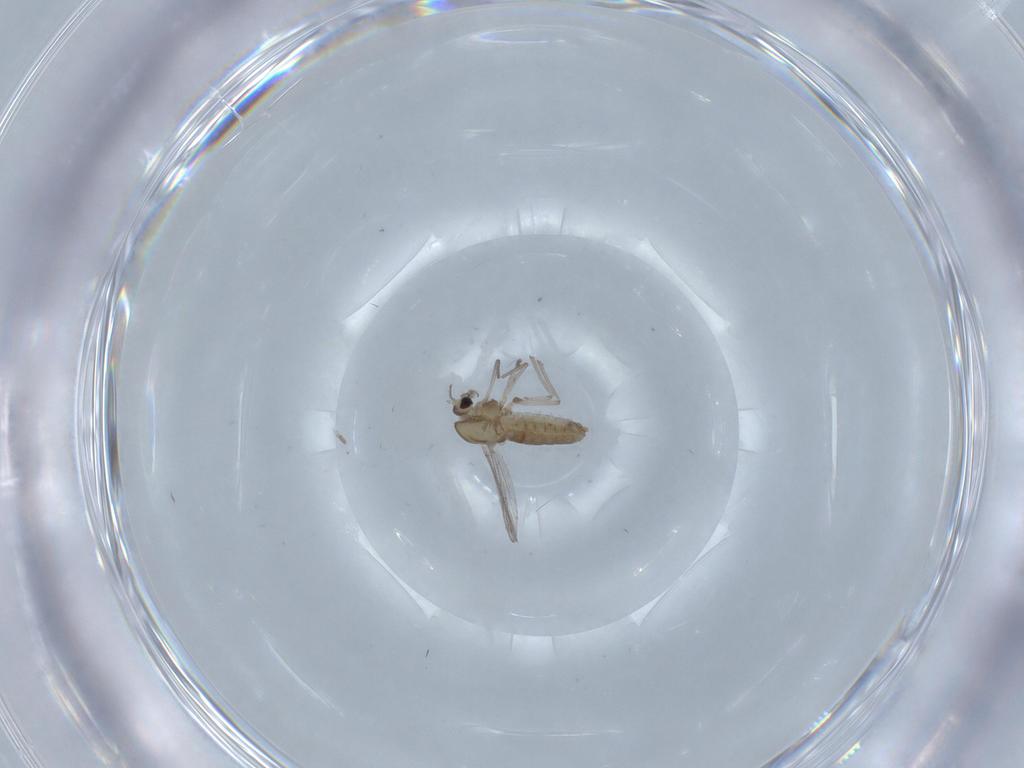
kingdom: Animalia
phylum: Arthropoda
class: Insecta
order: Diptera
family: Chironomidae
